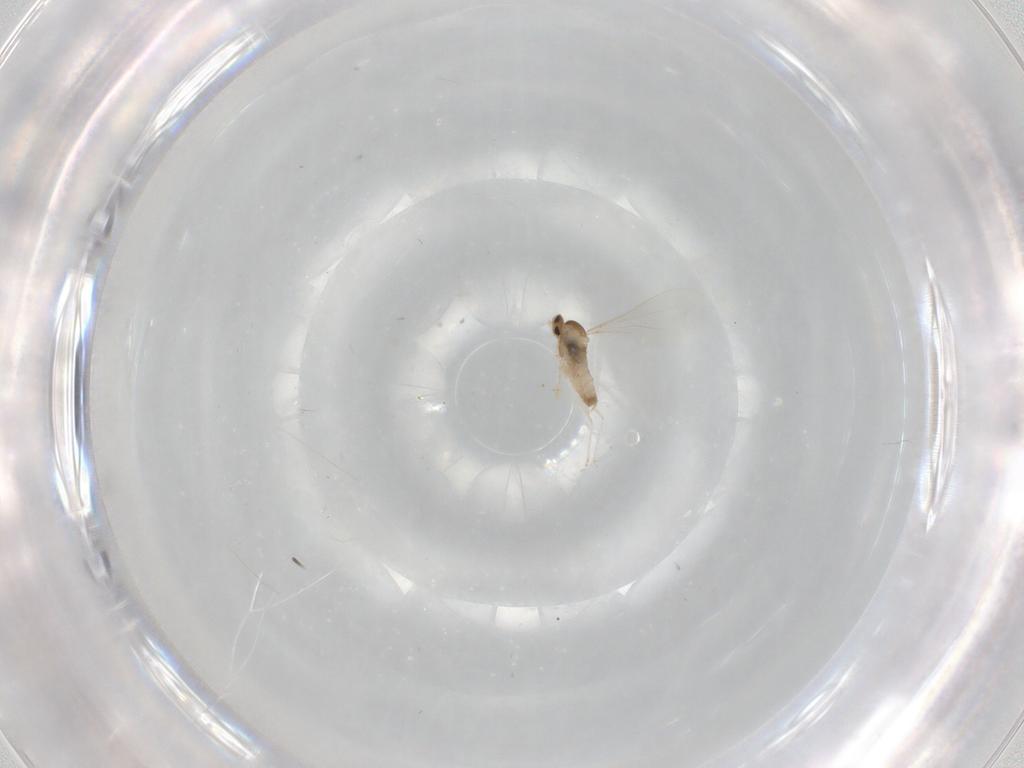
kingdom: Animalia
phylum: Arthropoda
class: Insecta
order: Diptera
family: Cecidomyiidae
